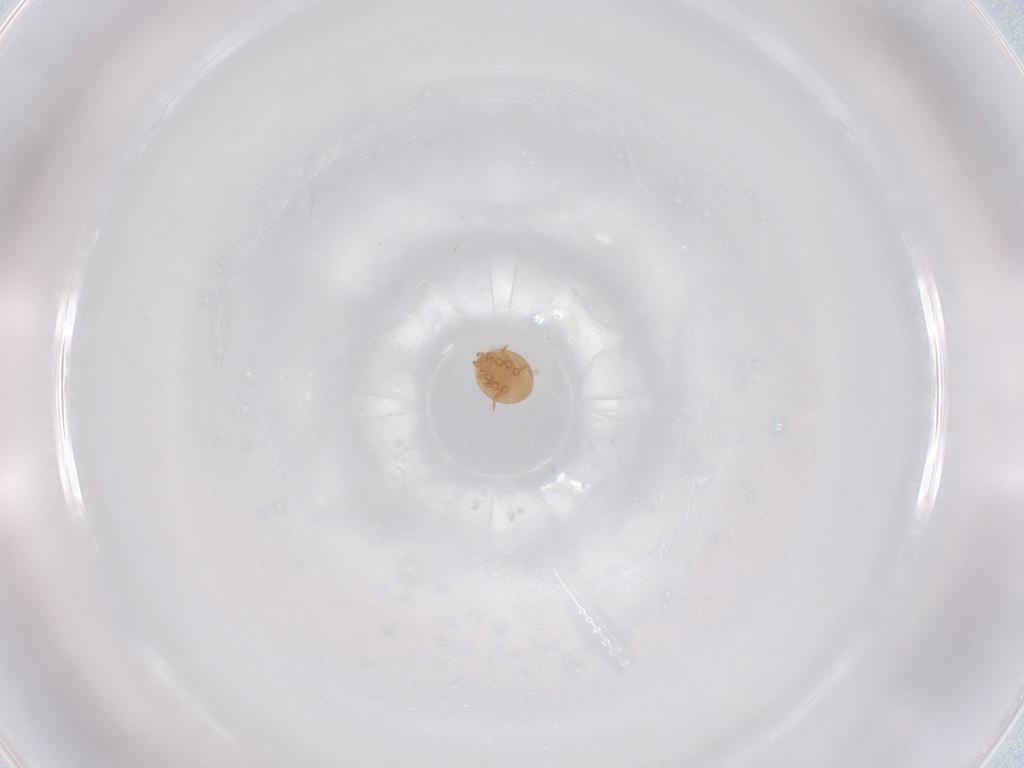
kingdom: Animalia
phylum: Arthropoda
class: Arachnida
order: Mesostigmata
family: Trematuridae
